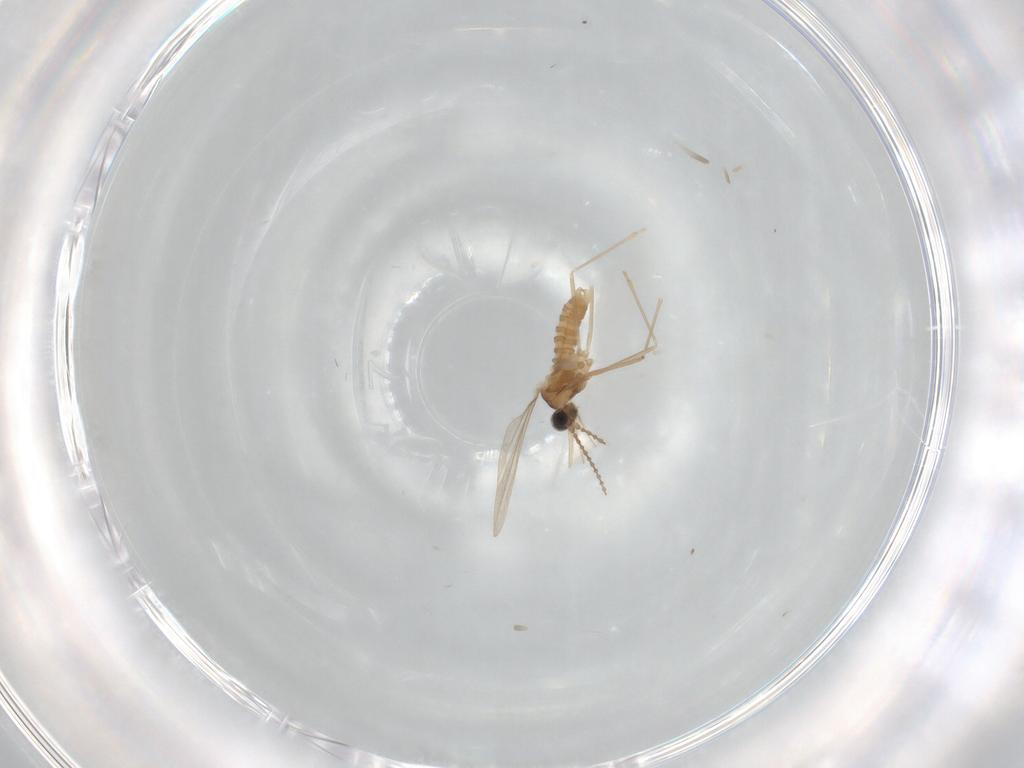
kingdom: Animalia
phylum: Arthropoda
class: Insecta
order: Diptera
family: Cecidomyiidae
